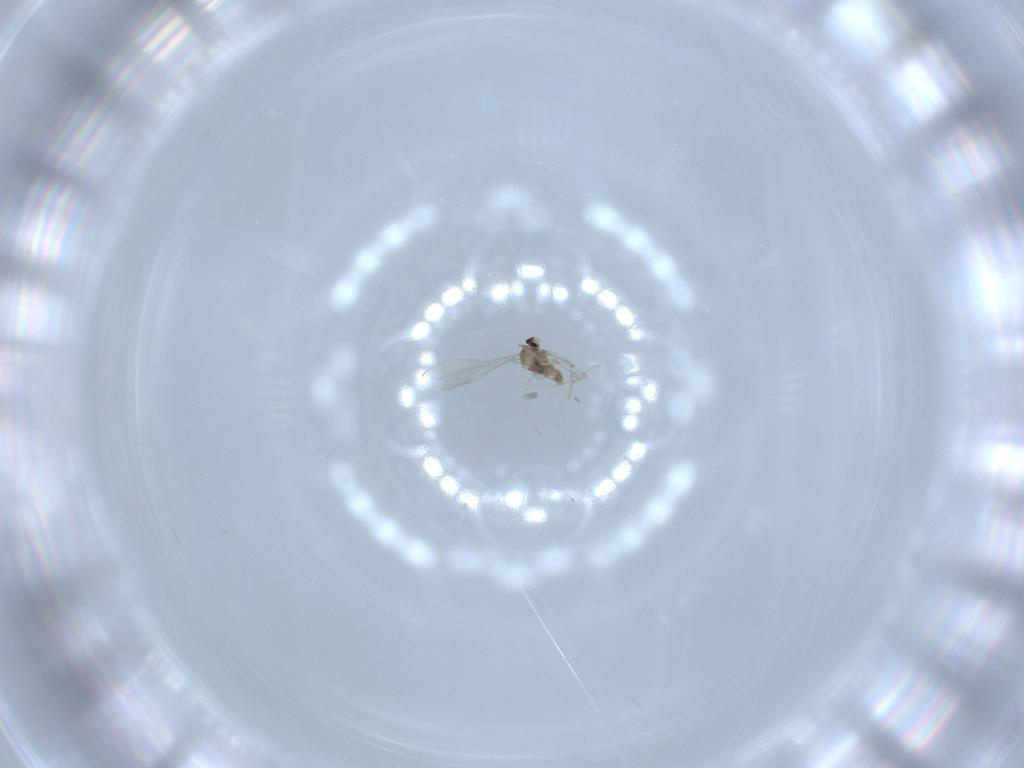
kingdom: Animalia
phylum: Arthropoda
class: Insecta
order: Diptera
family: Cecidomyiidae
